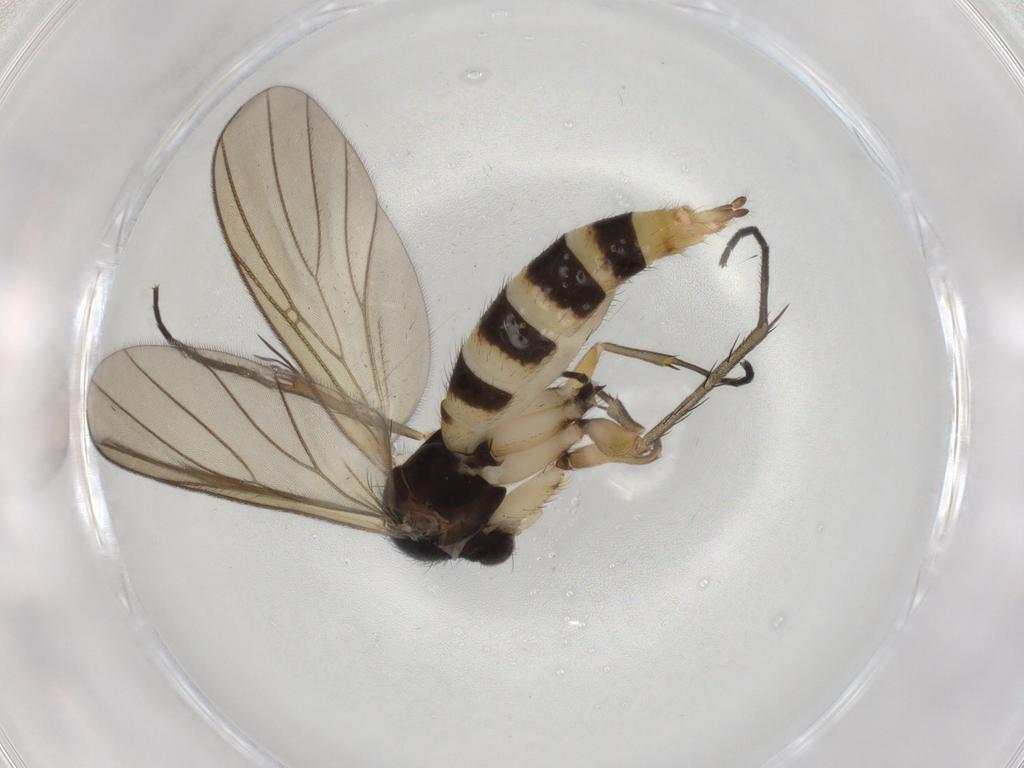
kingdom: Animalia
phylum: Arthropoda
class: Insecta
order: Diptera
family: Mycetophilidae
